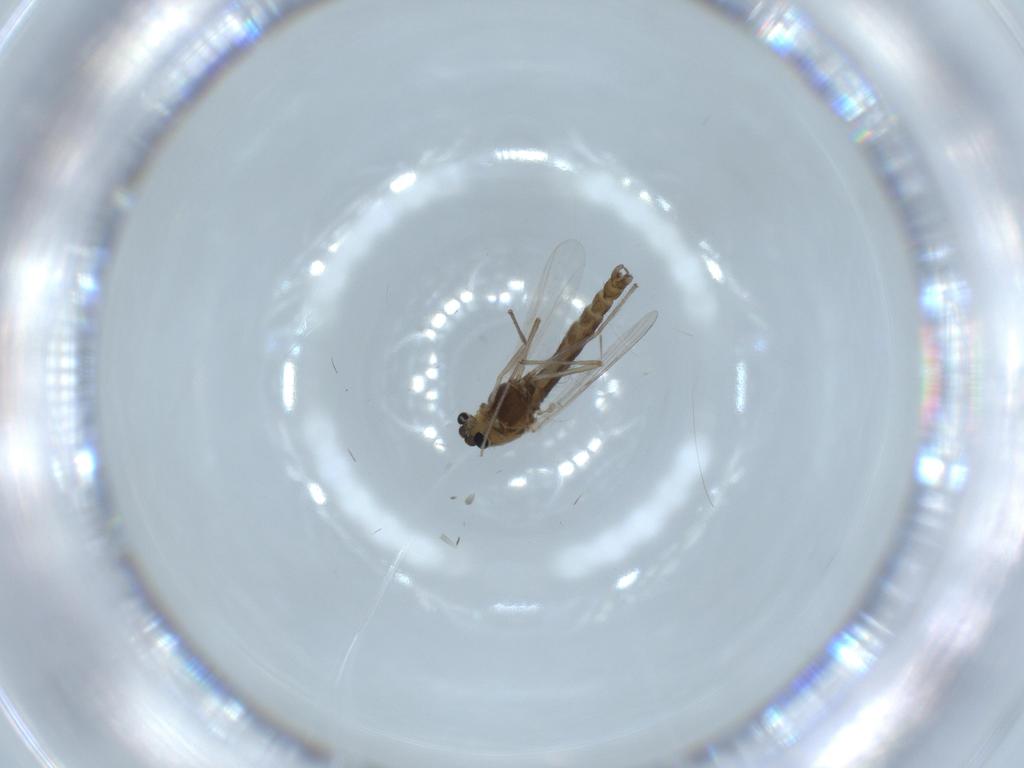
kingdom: Animalia
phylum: Arthropoda
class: Insecta
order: Diptera
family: Chironomidae
